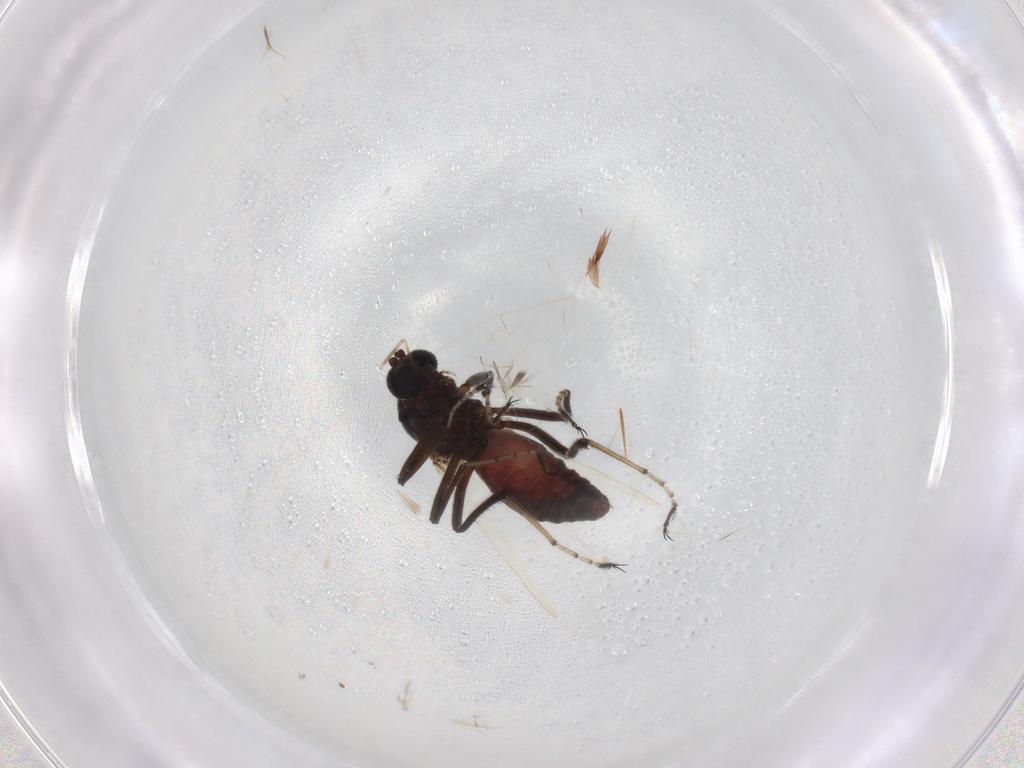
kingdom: Animalia
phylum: Arthropoda
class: Insecta
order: Diptera
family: Ceratopogonidae
